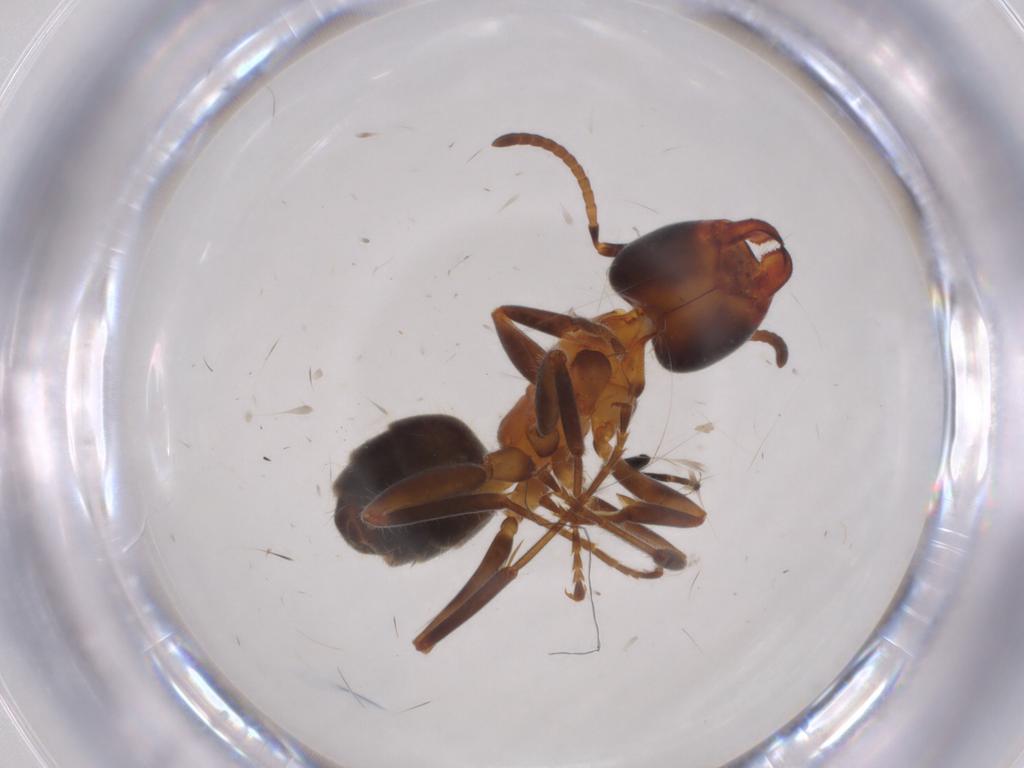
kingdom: Animalia
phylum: Arthropoda
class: Insecta
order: Hymenoptera
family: Formicidae
